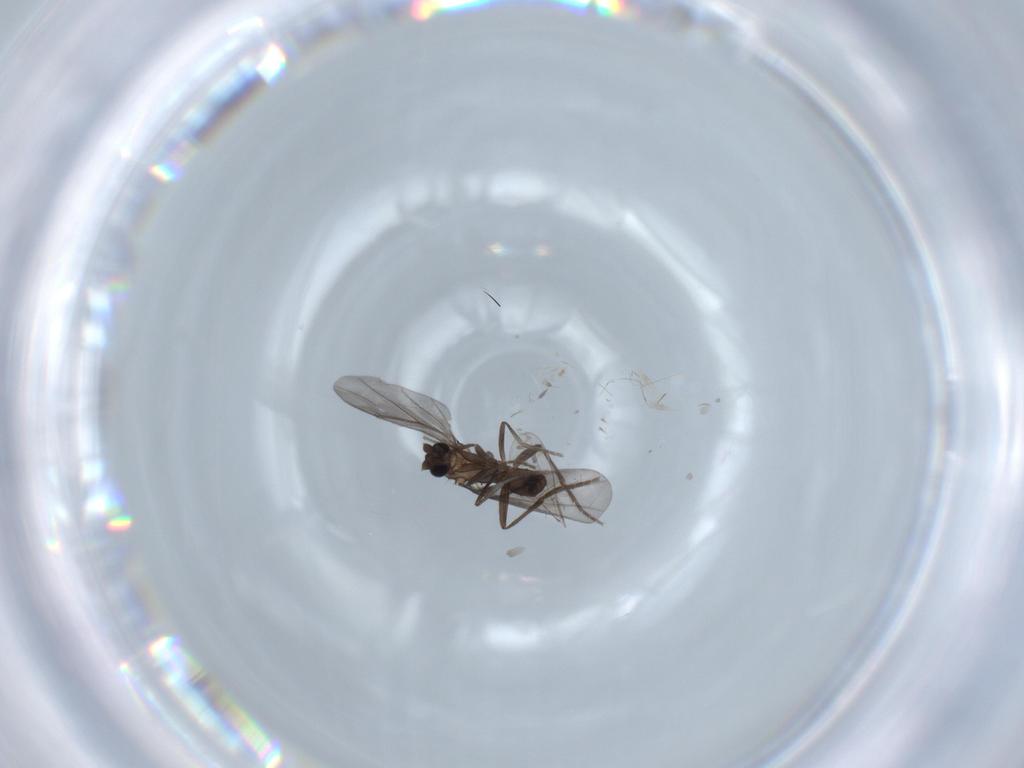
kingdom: Animalia
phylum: Arthropoda
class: Insecta
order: Diptera
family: Phoridae
